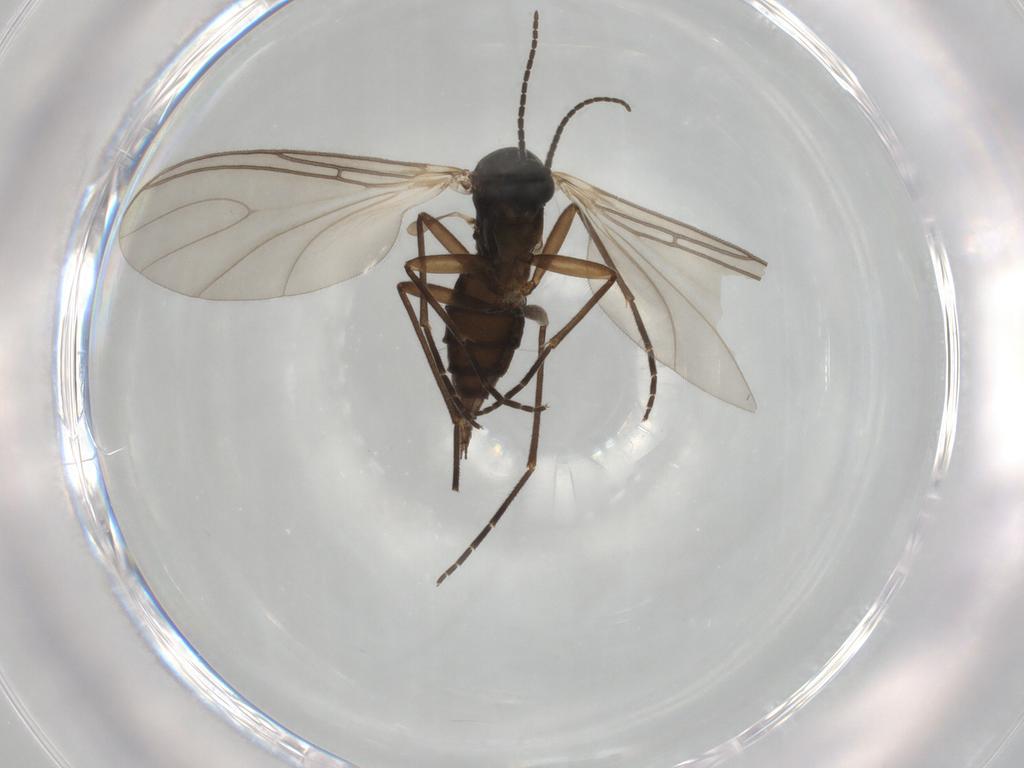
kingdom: Animalia
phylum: Arthropoda
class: Insecta
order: Diptera
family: Sciaridae
